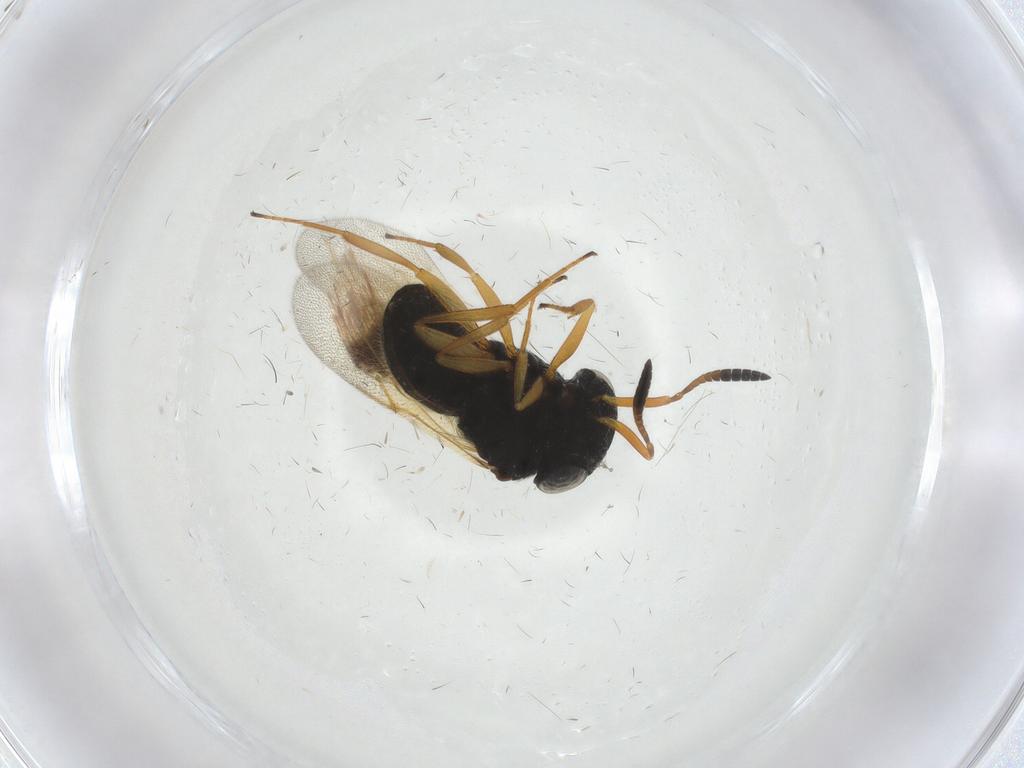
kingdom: Animalia
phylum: Arthropoda
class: Insecta
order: Hymenoptera
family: Scelionidae
